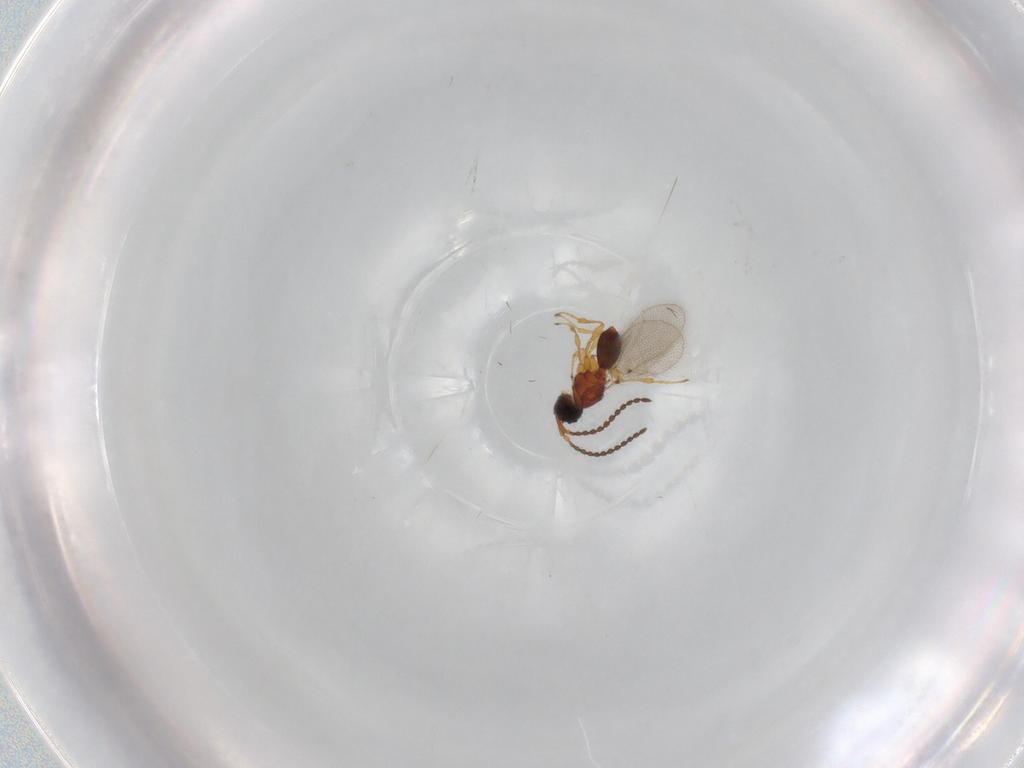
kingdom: Animalia
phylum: Arthropoda
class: Insecta
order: Hymenoptera
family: Diapriidae
